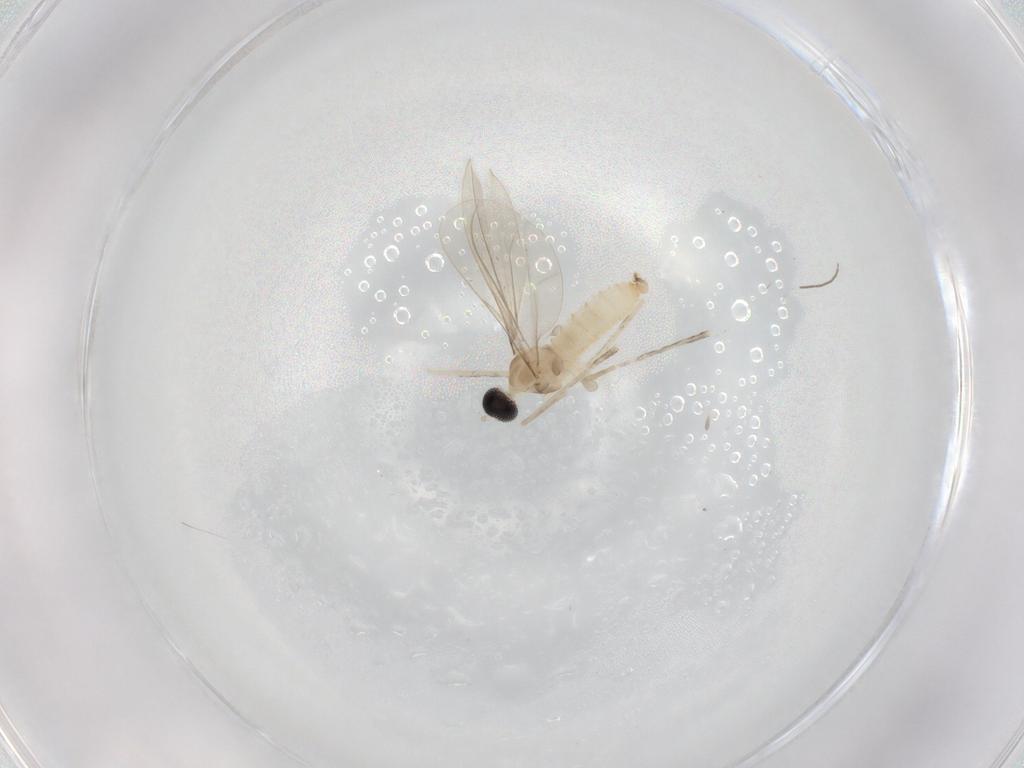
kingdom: Animalia
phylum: Arthropoda
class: Insecta
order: Diptera
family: Cecidomyiidae
